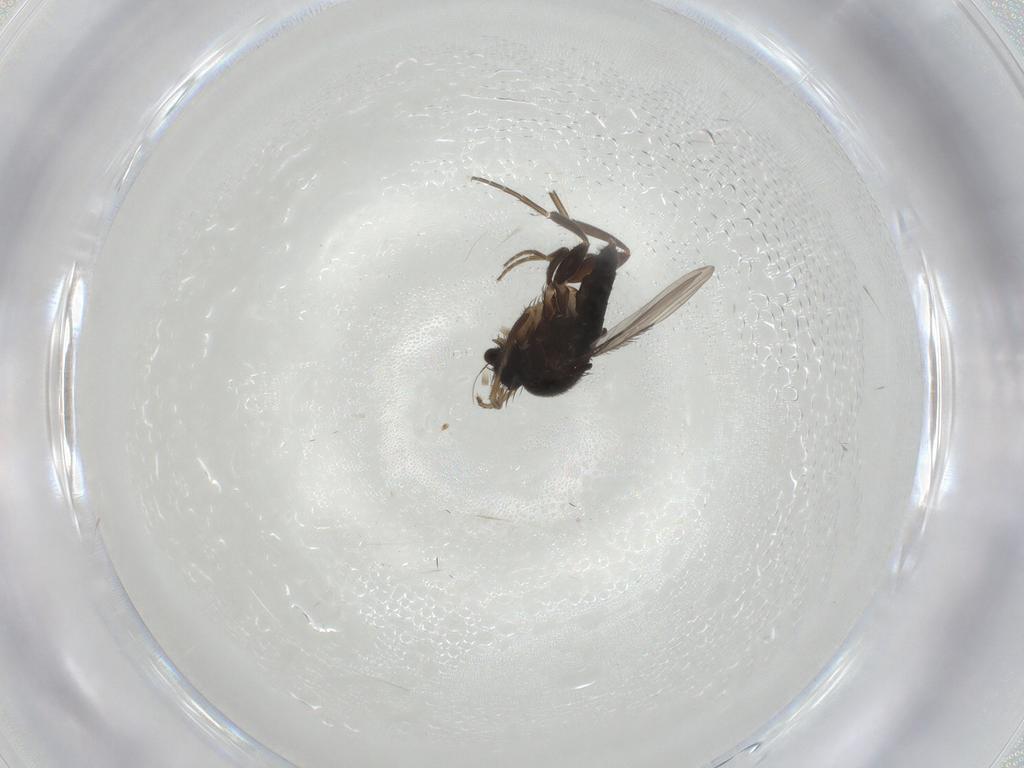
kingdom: Animalia
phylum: Arthropoda
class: Insecta
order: Diptera
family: Phoridae
